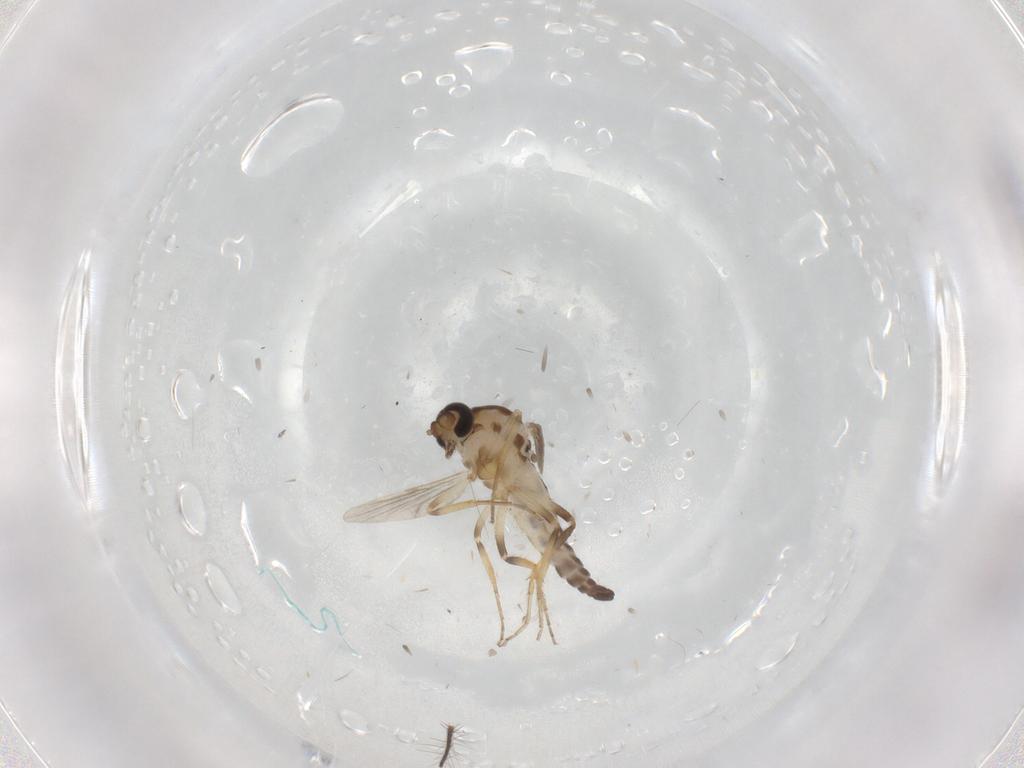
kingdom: Animalia
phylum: Arthropoda
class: Insecta
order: Diptera
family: Ceratopogonidae
